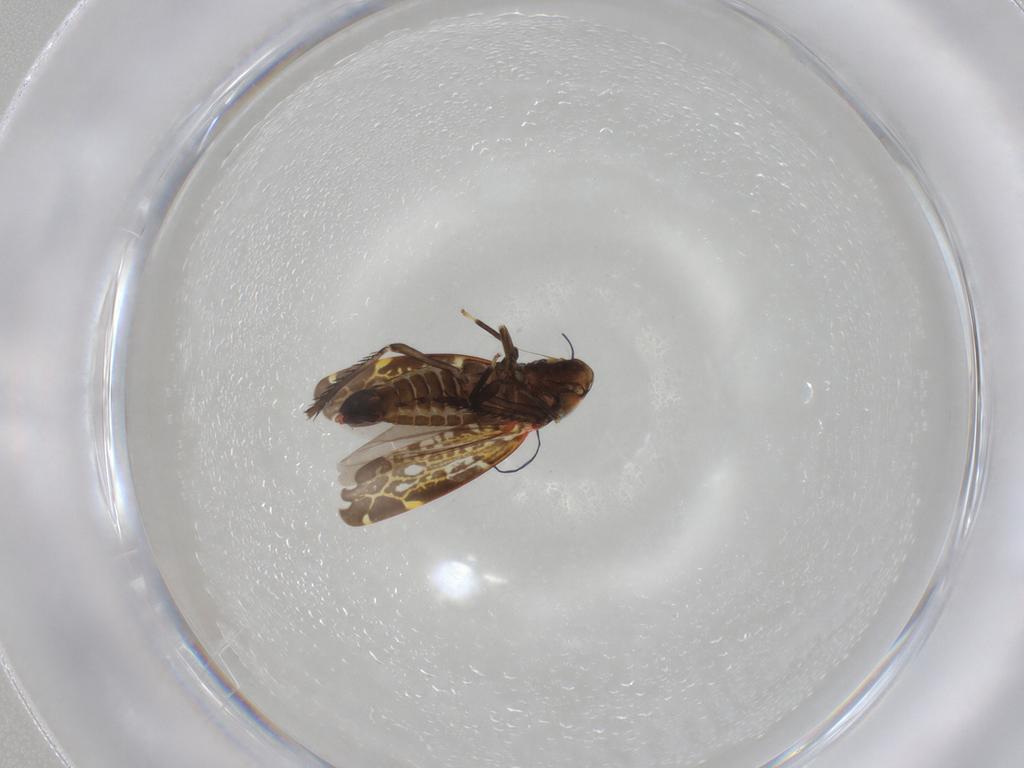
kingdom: Animalia
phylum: Arthropoda
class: Insecta
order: Hemiptera
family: Cicadellidae
